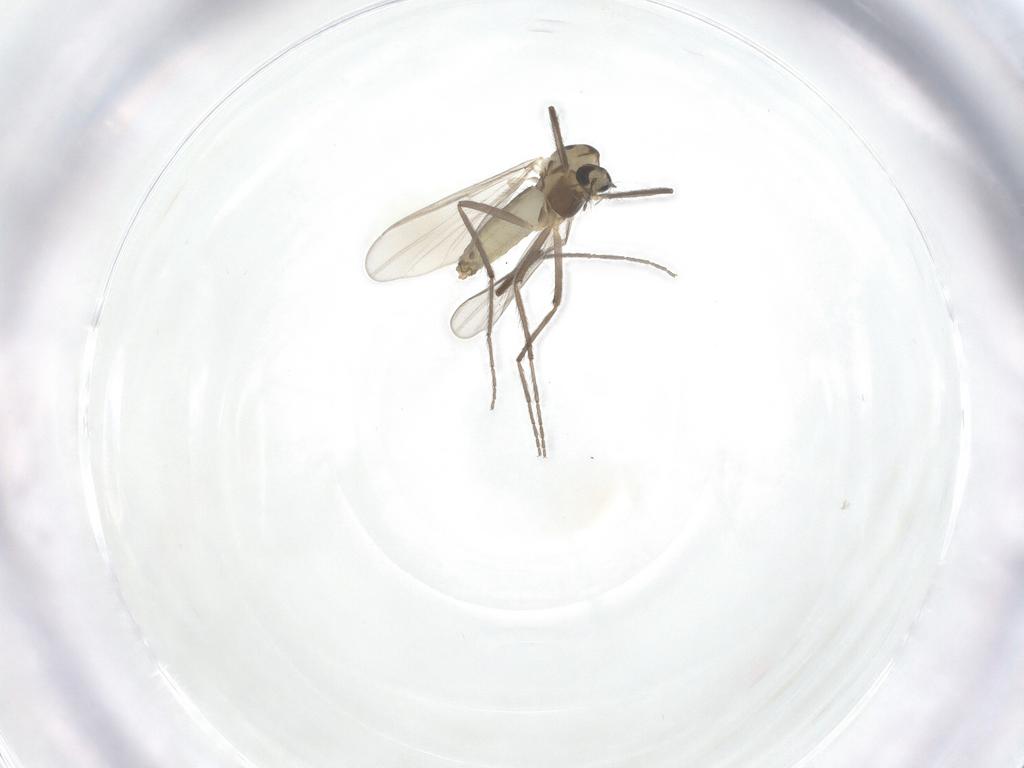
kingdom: Animalia
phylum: Arthropoda
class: Insecta
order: Diptera
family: Chironomidae
